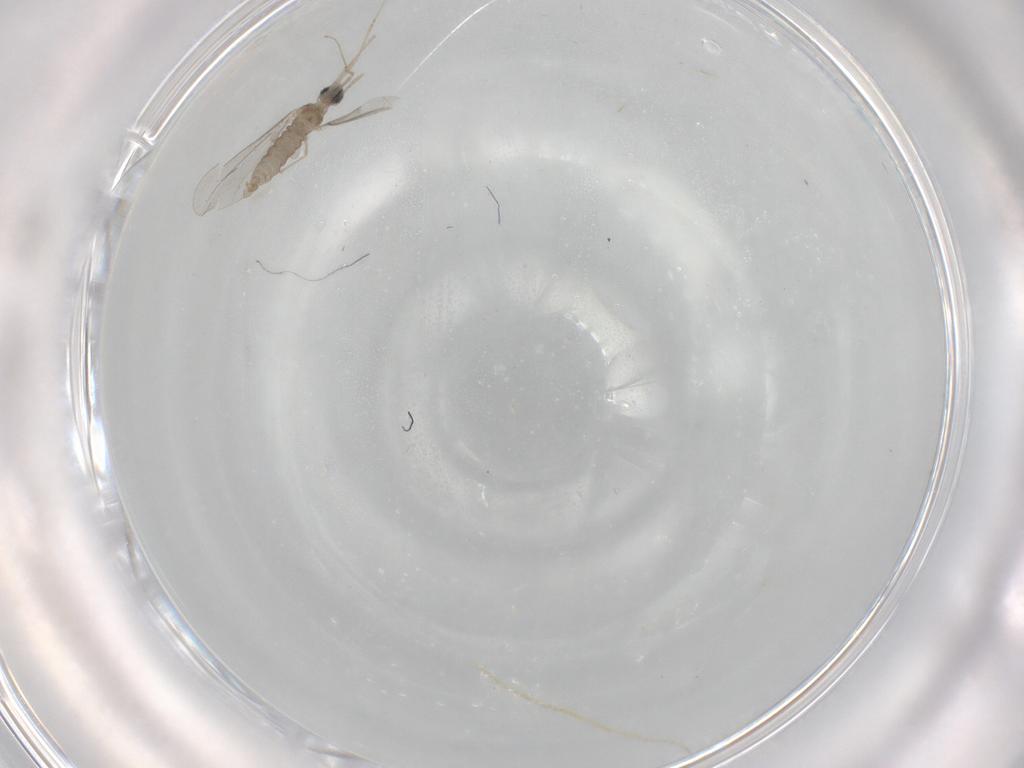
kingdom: Animalia
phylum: Arthropoda
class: Insecta
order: Diptera
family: Cecidomyiidae
